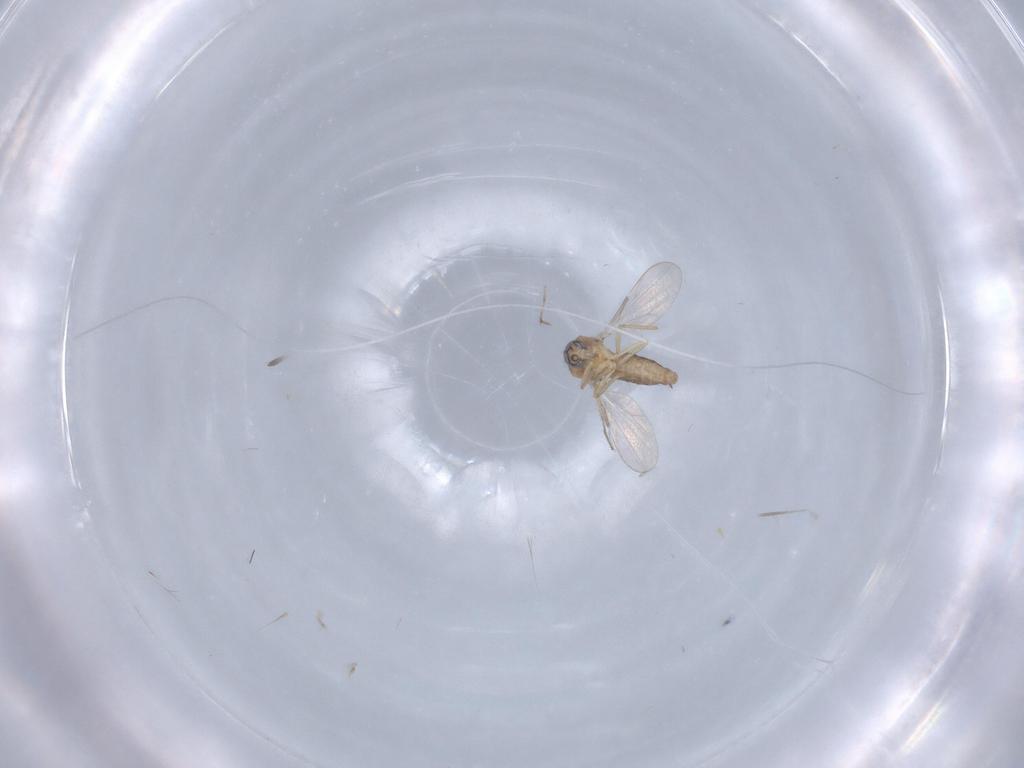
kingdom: Animalia
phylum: Arthropoda
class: Insecta
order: Diptera
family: Ceratopogonidae
